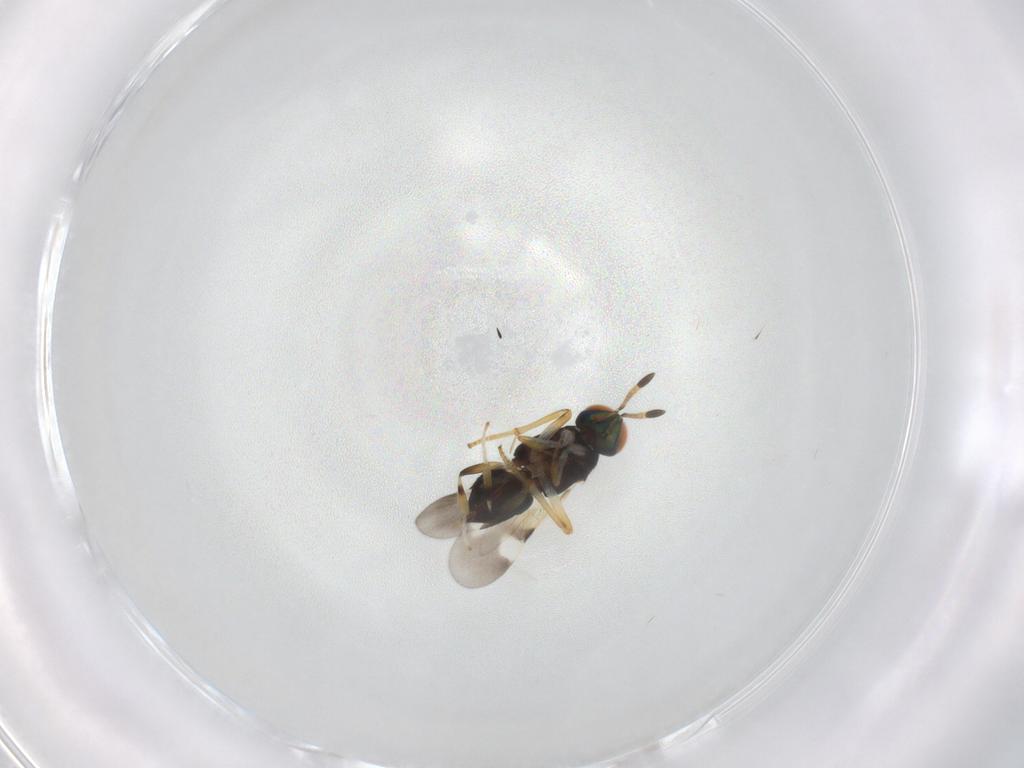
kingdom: Animalia
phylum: Arthropoda
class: Insecta
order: Hymenoptera
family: Encyrtidae
